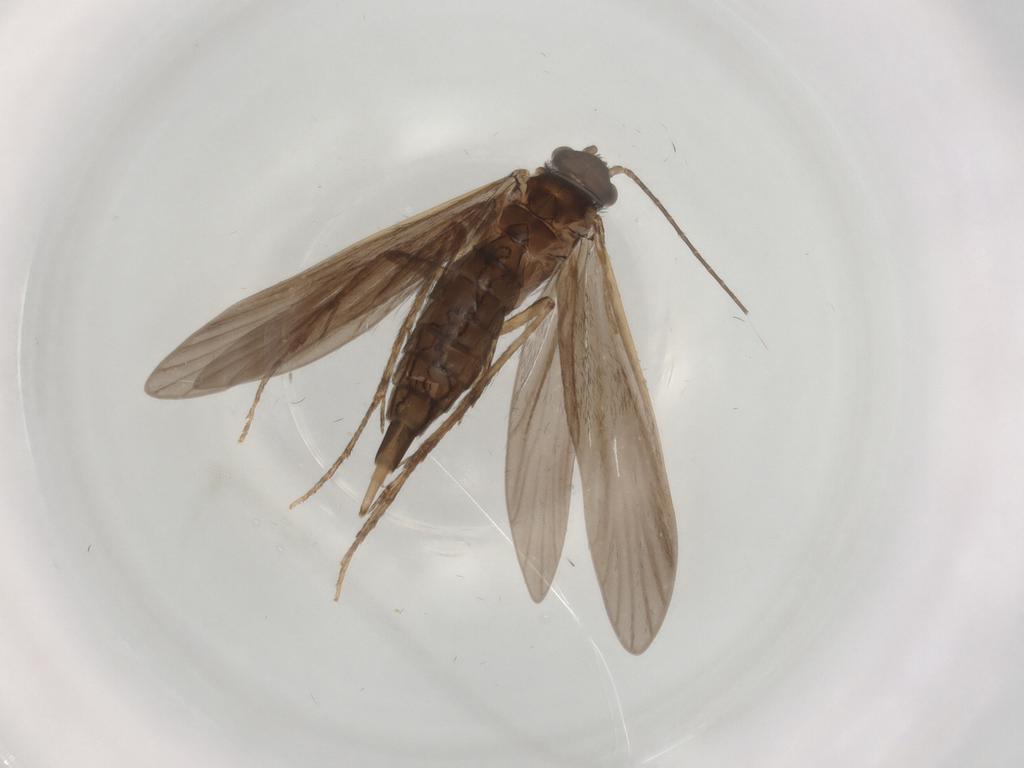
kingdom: Animalia
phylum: Arthropoda
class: Insecta
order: Trichoptera
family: Xiphocentronidae
